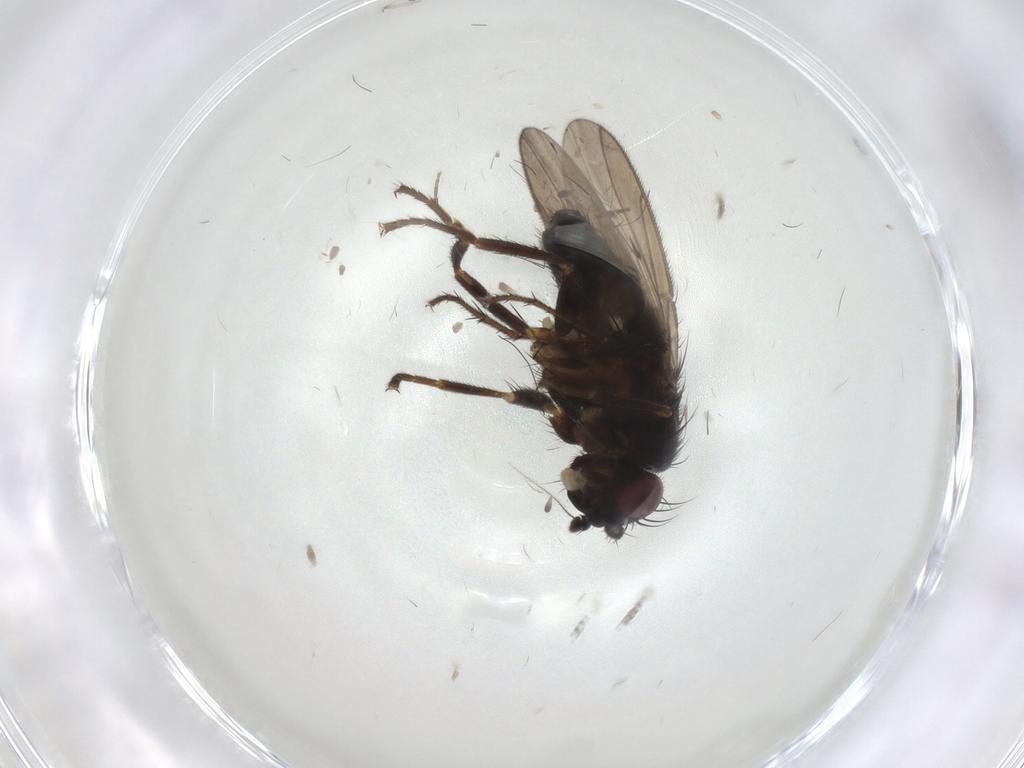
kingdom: Animalia
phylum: Arthropoda
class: Insecta
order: Diptera
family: Sphaeroceridae
